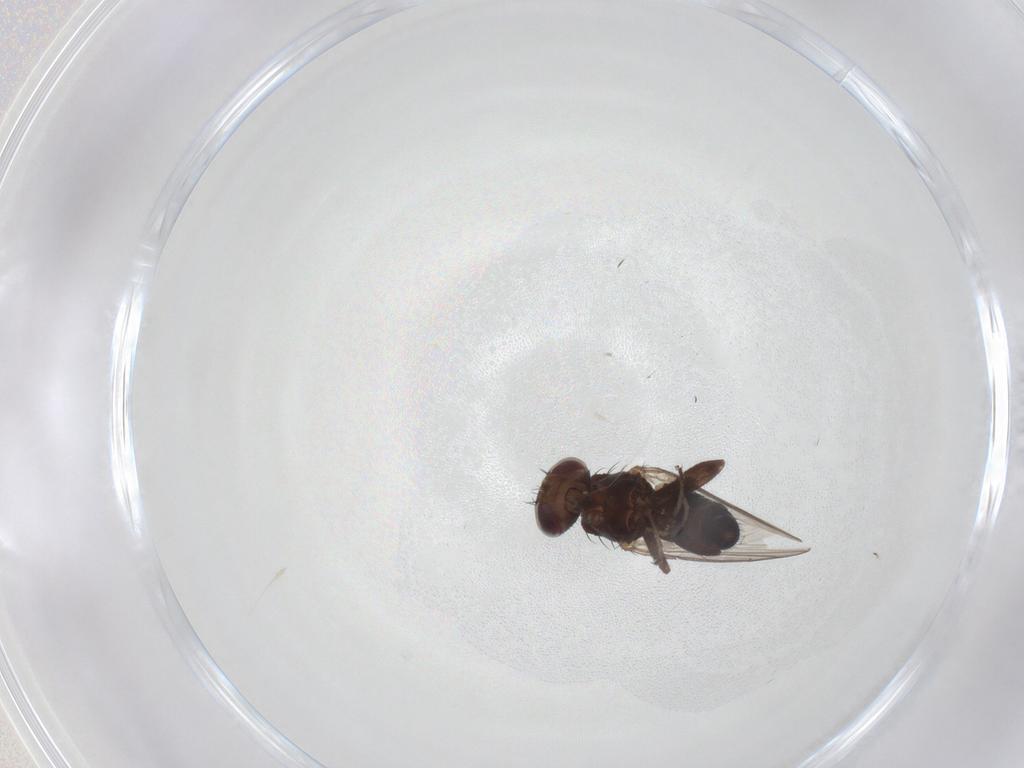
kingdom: Animalia
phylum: Arthropoda
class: Insecta
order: Diptera
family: Heleomyzidae
